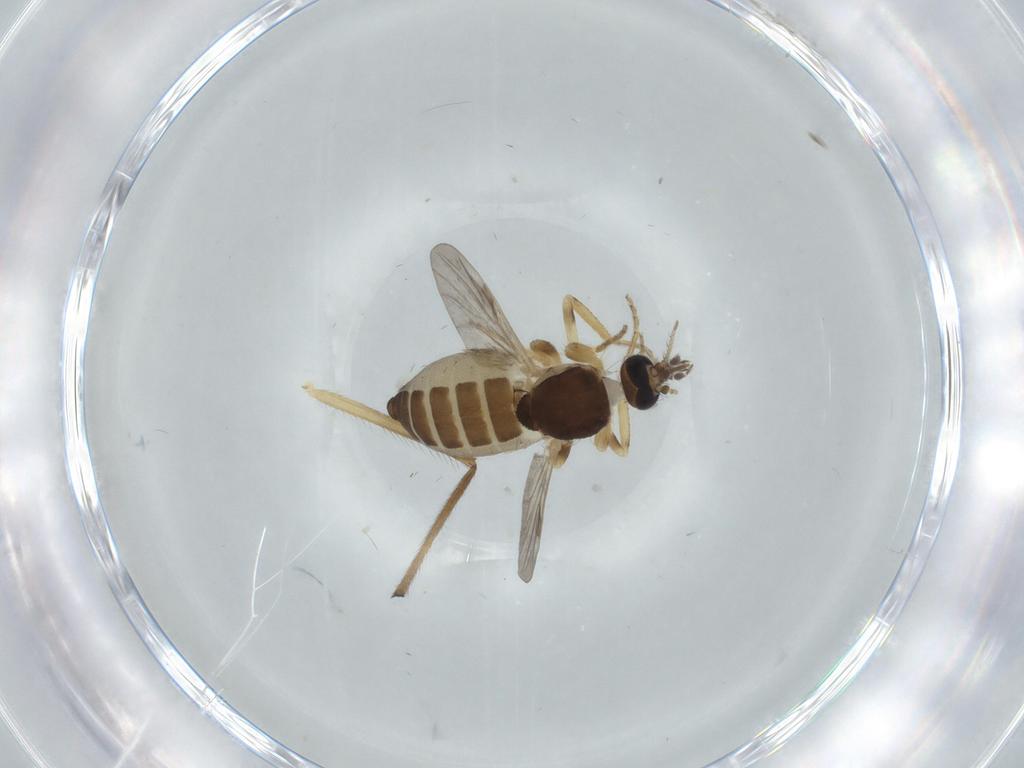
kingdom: Animalia
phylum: Arthropoda
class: Insecta
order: Diptera
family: Ceratopogonidae
